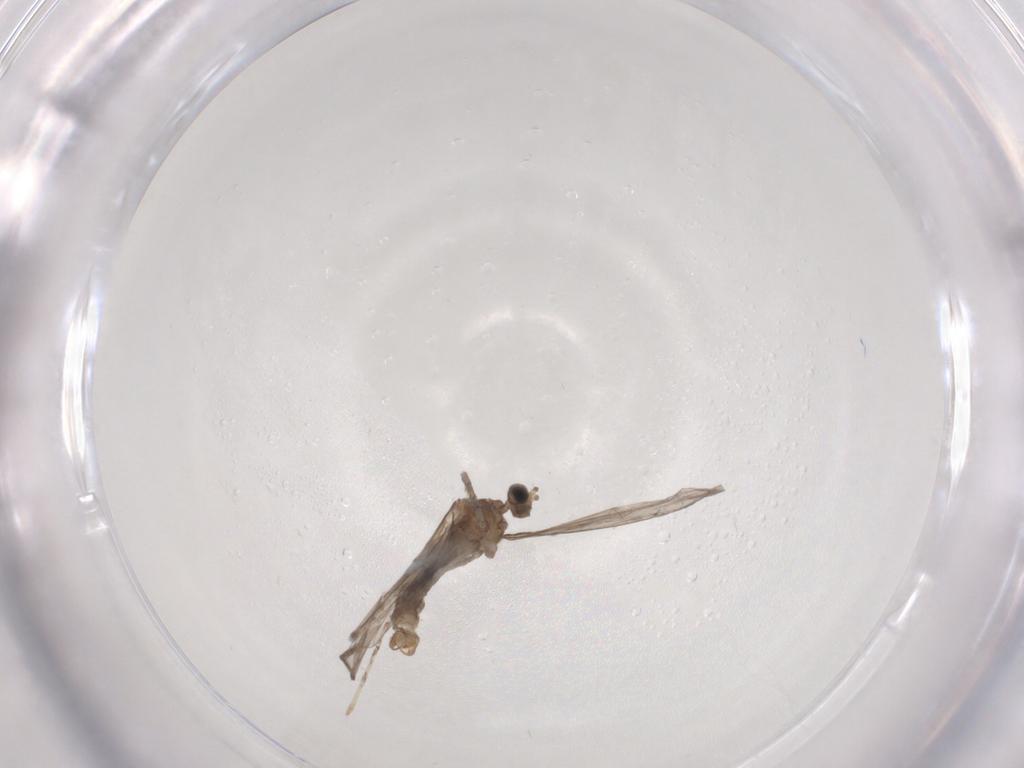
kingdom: Animalia
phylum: Arthropoda
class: Insecta
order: Diptera
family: Cecidomyiidae
